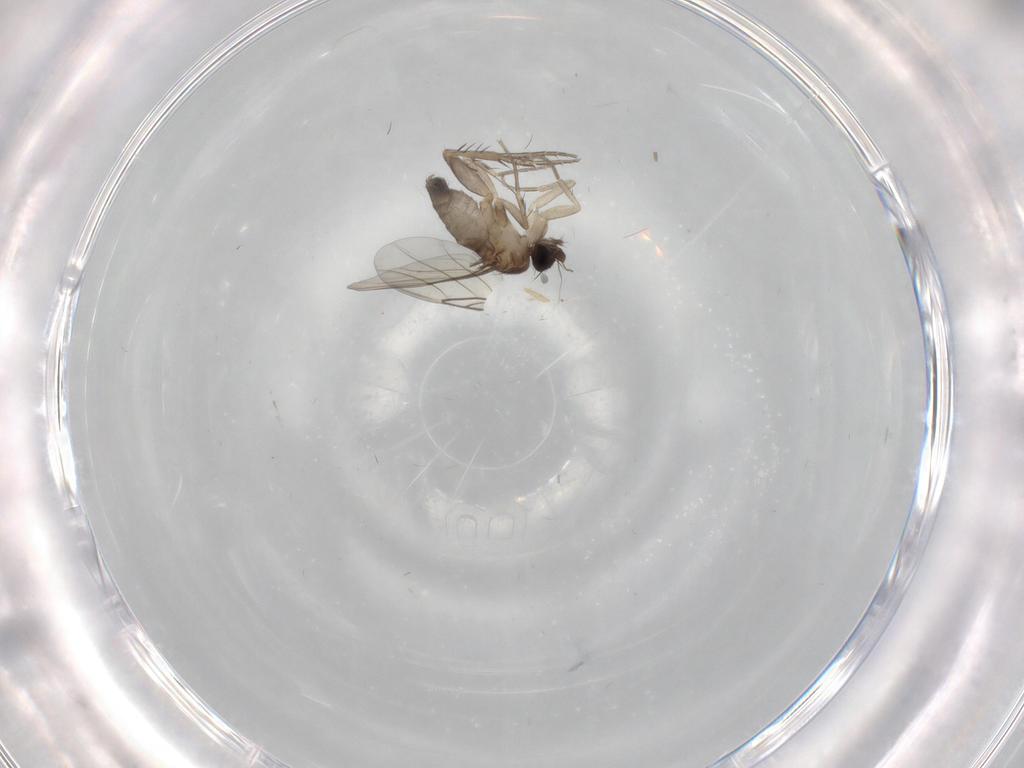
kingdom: Animalia
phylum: Arthropoda
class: Insecta
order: Diptera
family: Phoridae
